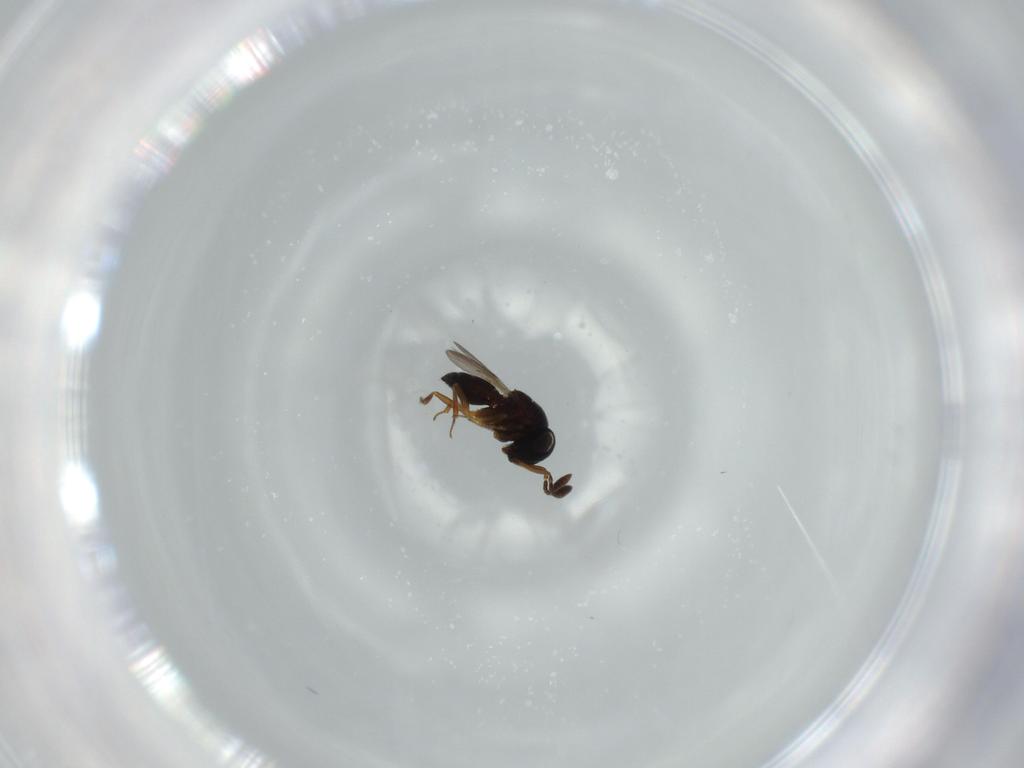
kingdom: Animalia
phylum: Arthropoda
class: Insecta
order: Coleoptera
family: Curculionidae
